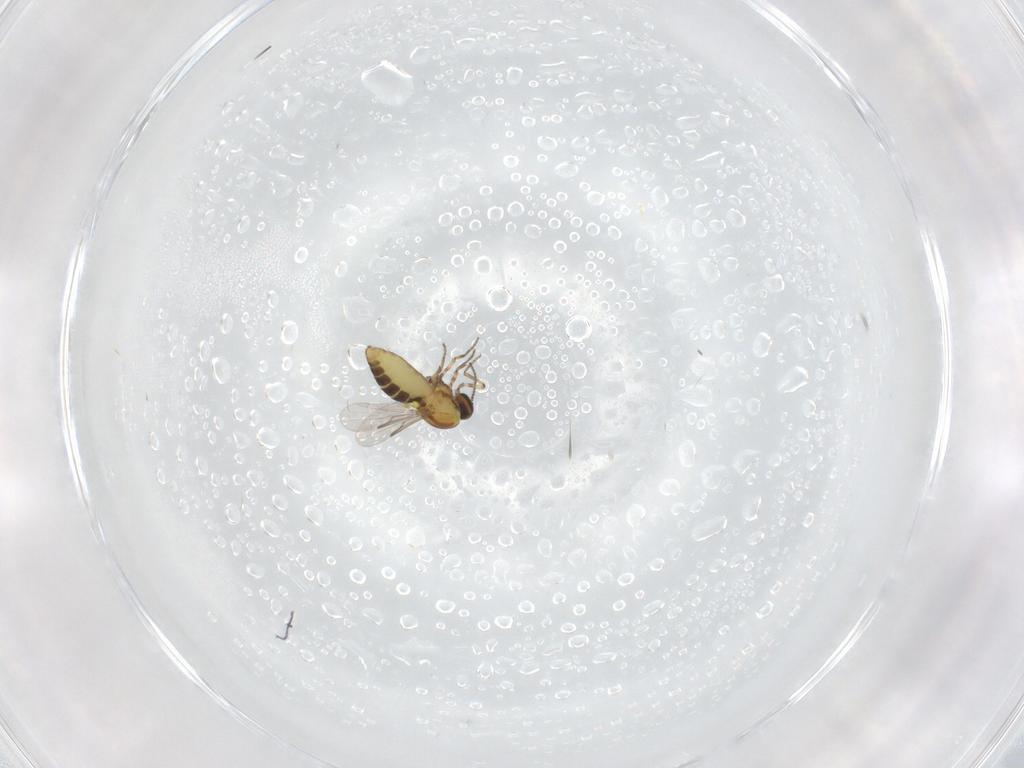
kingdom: Animalia
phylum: Arthropoda
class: Insecta
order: Diptera
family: Ceratopogonidae
